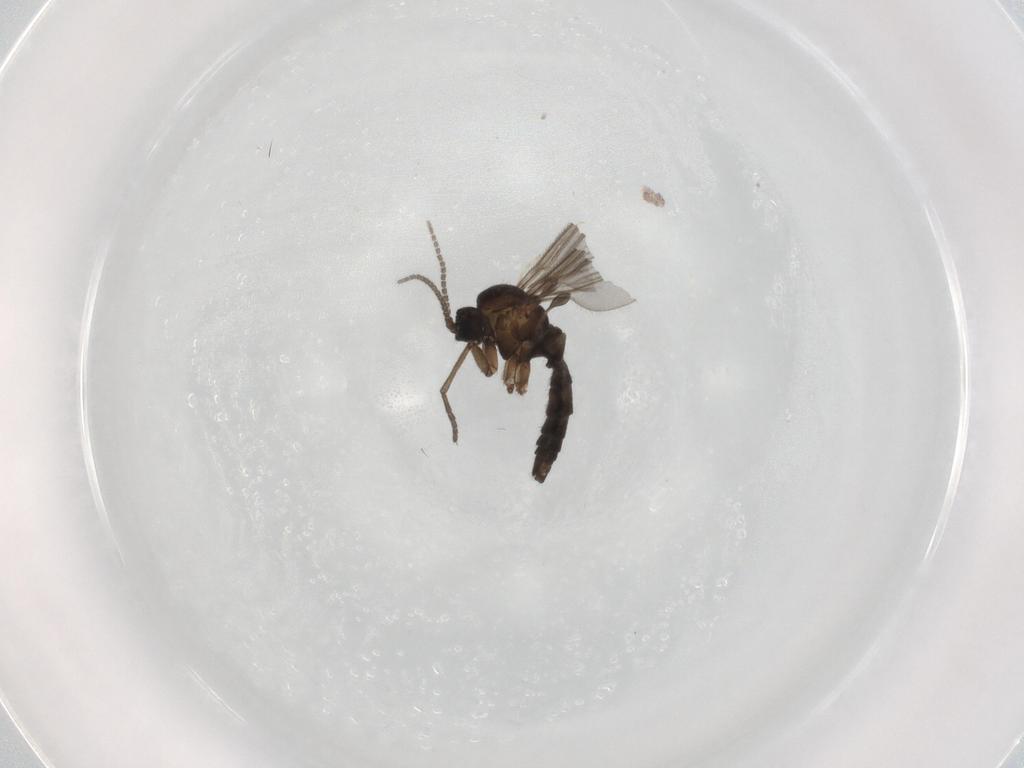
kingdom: Animalia
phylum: Arthropoda
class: Insecta
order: Diptera
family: Sciaridae
